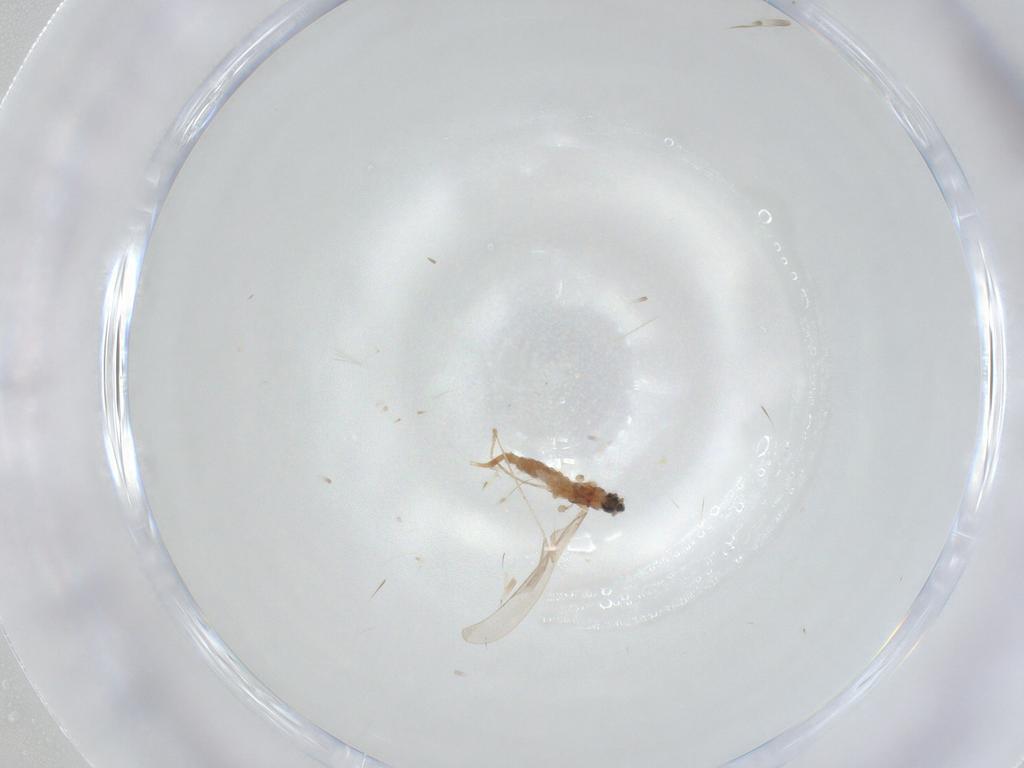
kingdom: Animalia
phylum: Arthropoda
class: Insecta
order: Diptera
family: Cecidomyiidae
